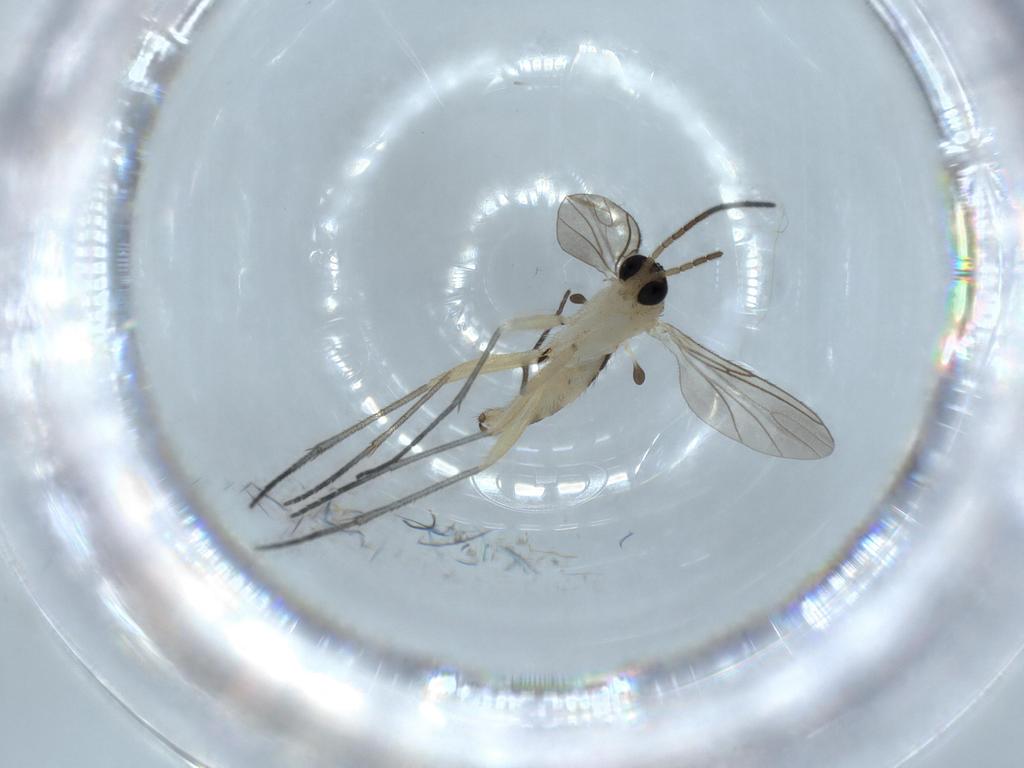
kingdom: Animalia
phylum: Arthropoda
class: Insecta
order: Diptera
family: Sciaridae
